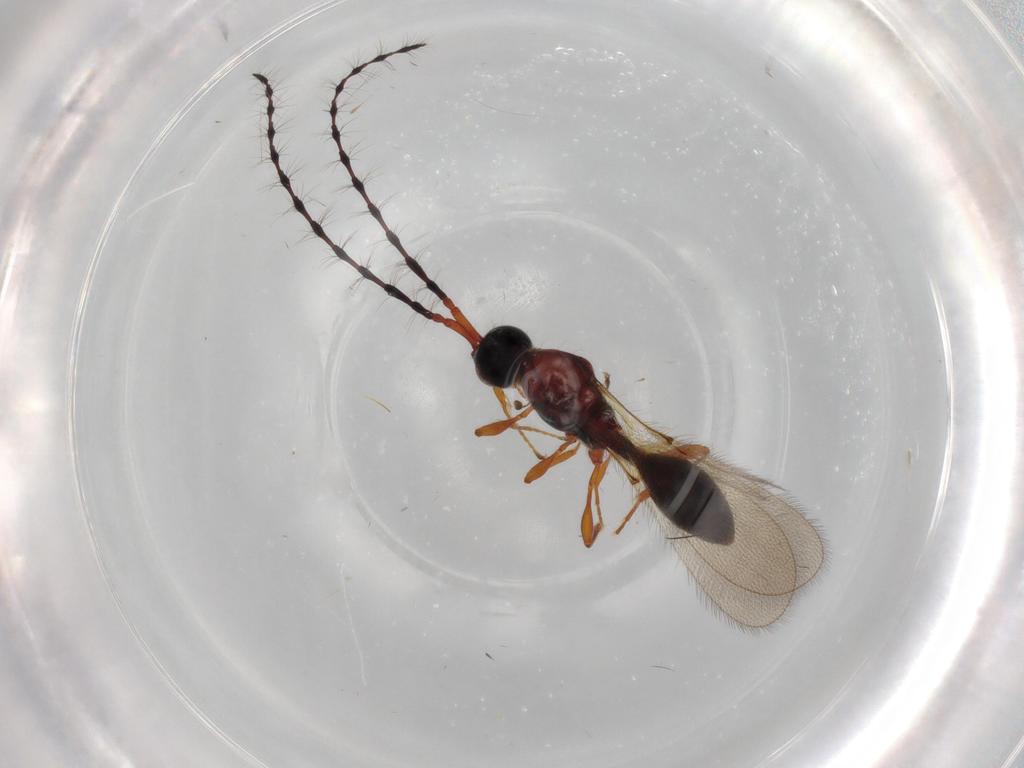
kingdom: Animalia
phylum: Arthropoda
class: Insecta
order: Hymenoptera
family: Diapriidae
